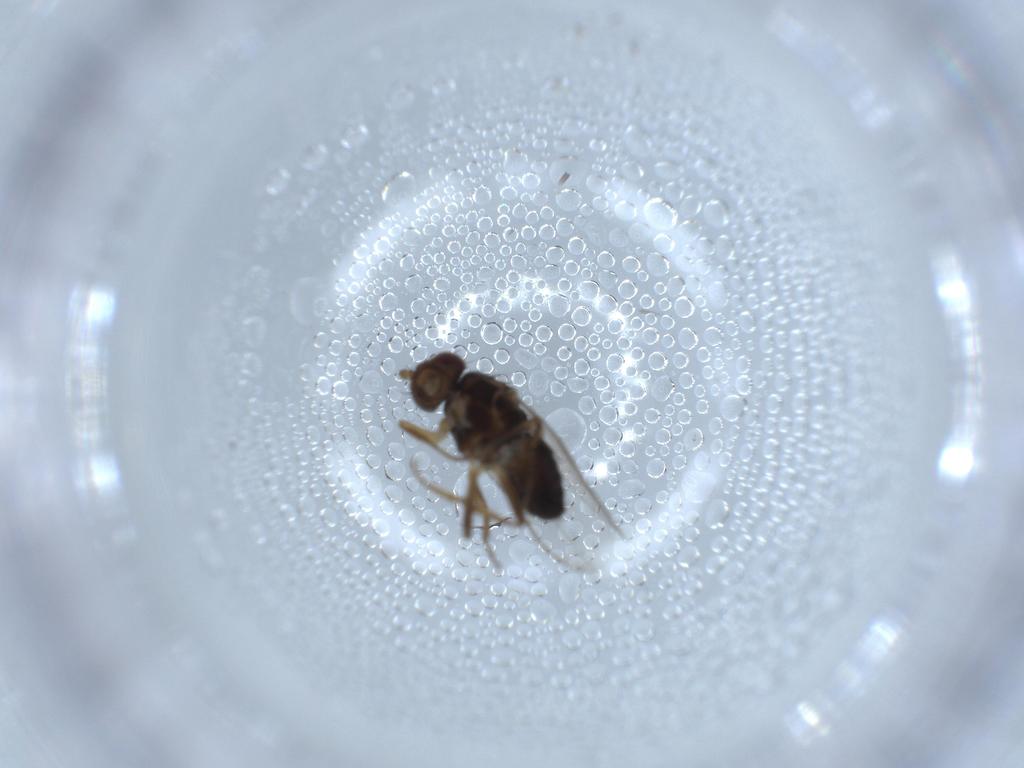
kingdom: Animalia
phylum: Arthropoda
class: Insecta
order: Diptera
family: Sphaeroceridae
